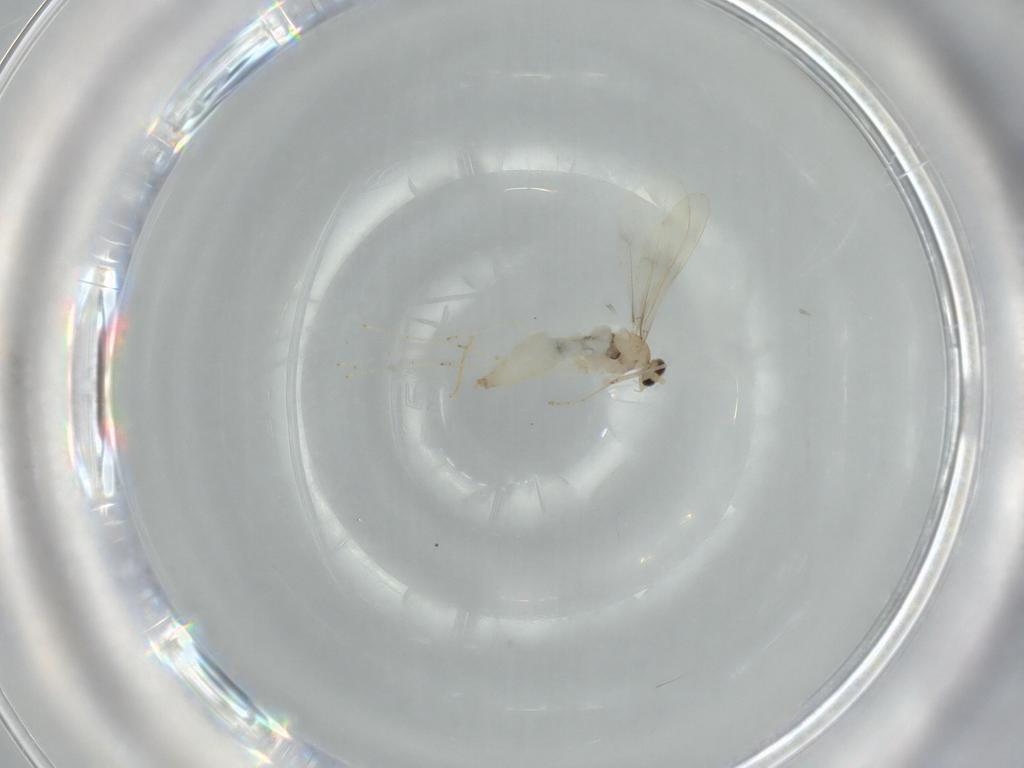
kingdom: Animalia
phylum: Arthropoda
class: Insecta
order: Diptera
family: Cecidomyiidae
